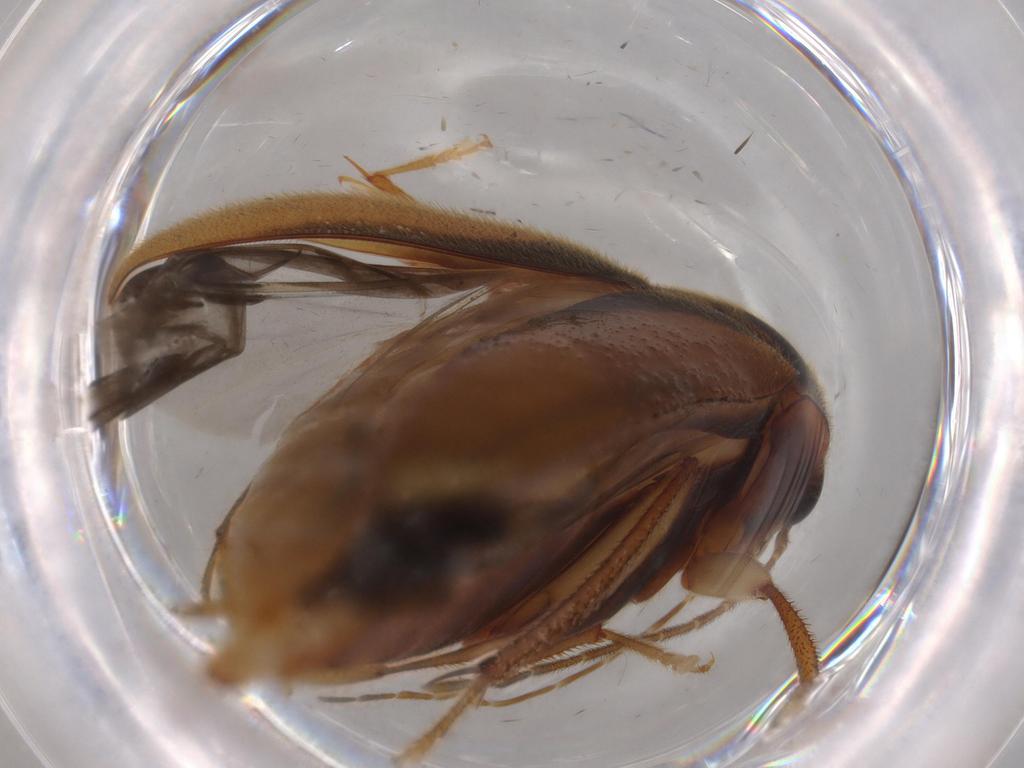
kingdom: Animalia
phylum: Arthropoda
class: Insecta
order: Coleoptera
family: Ptilodactylidae
